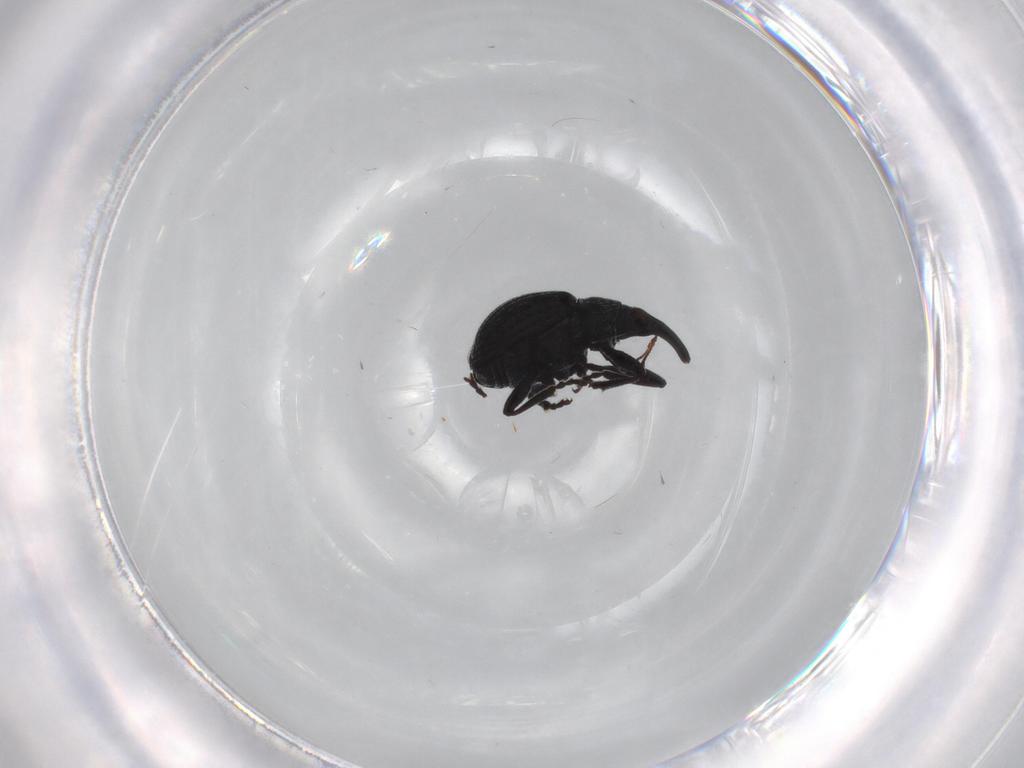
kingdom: Animalia
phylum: Arthropoda
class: Insecta
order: Coleoptera
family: Brentidae
